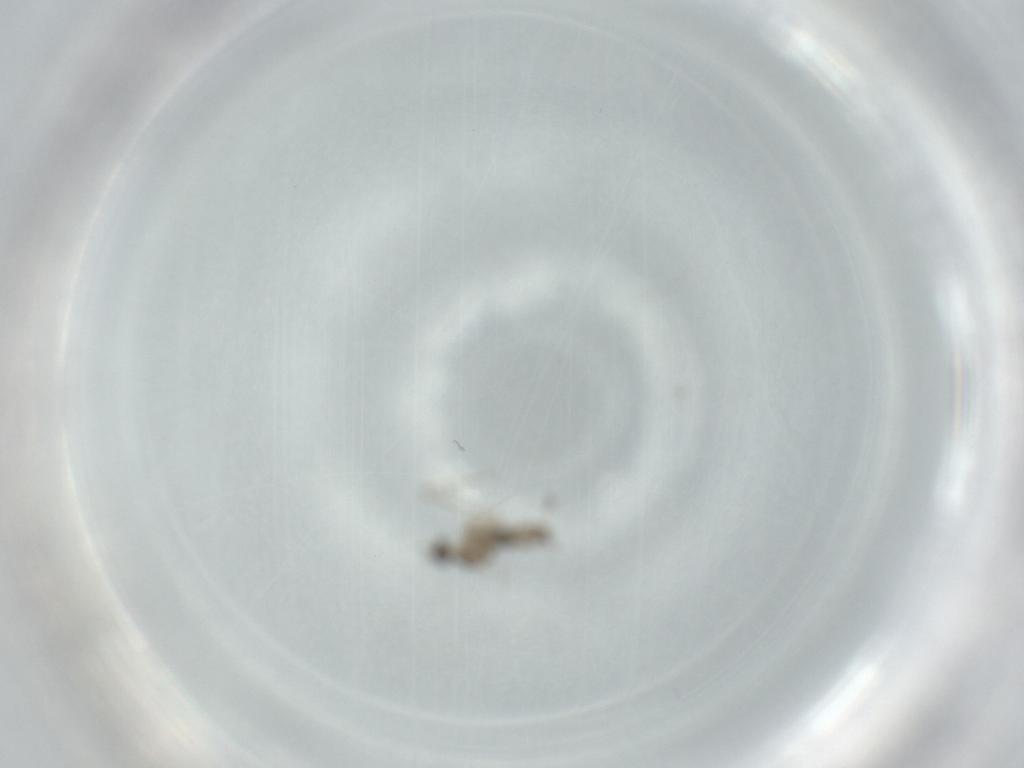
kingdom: Animalia
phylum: Arthropoda
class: Insecta
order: Diptera
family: Cecidomyiidae
